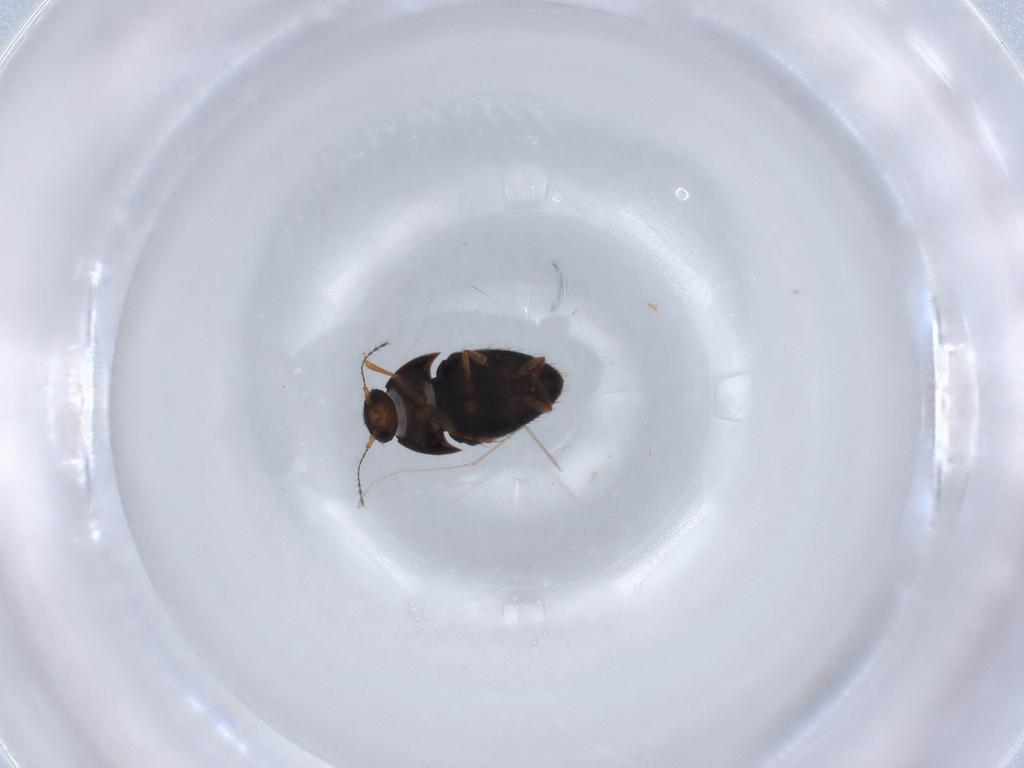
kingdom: Animalia
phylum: Arthropoda
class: Insecta
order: Coleoptera
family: Ptiliidae
